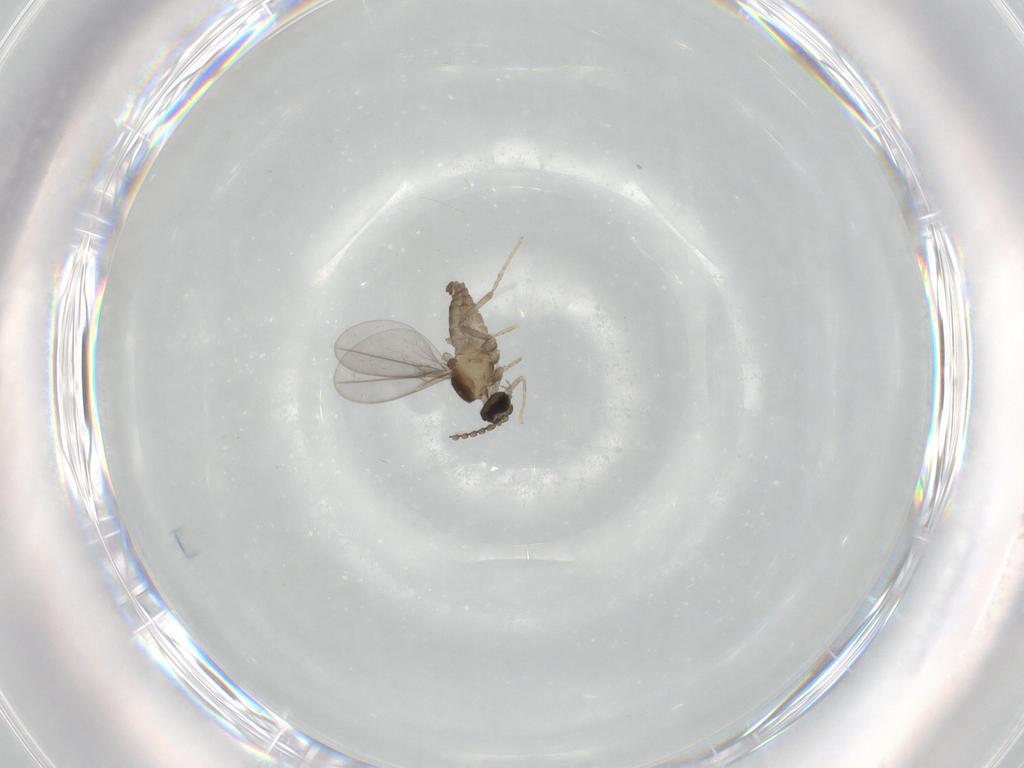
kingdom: Animalia
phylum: Arthropoda
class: Insecta
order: Diptera
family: Cecidomyiidae
